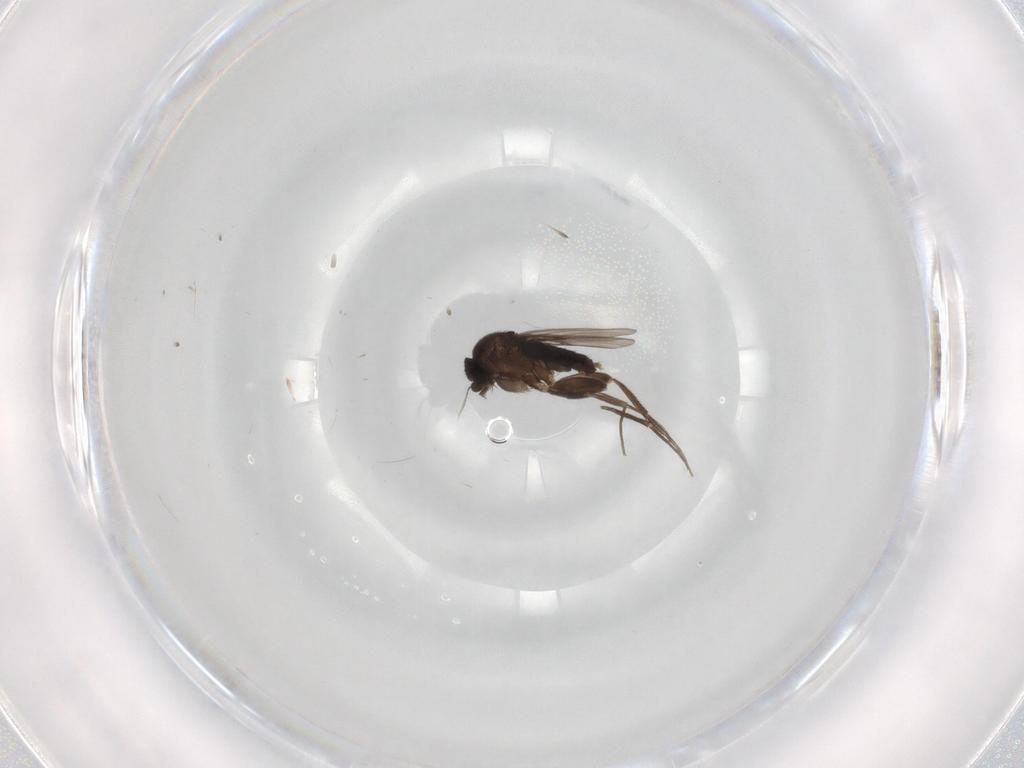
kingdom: Animalia
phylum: Arthropoda
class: Insecta
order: Diptera
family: Phoridae
